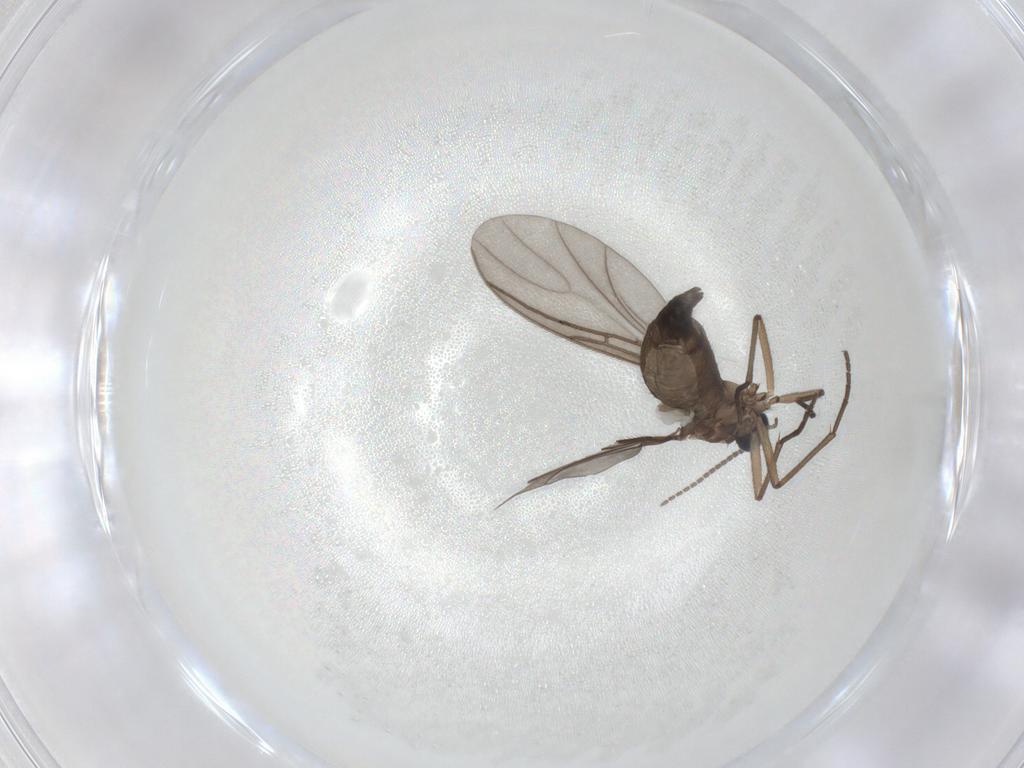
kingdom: Animalia
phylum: Arthropoda
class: Insecta
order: Diptera
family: Sciaridae
